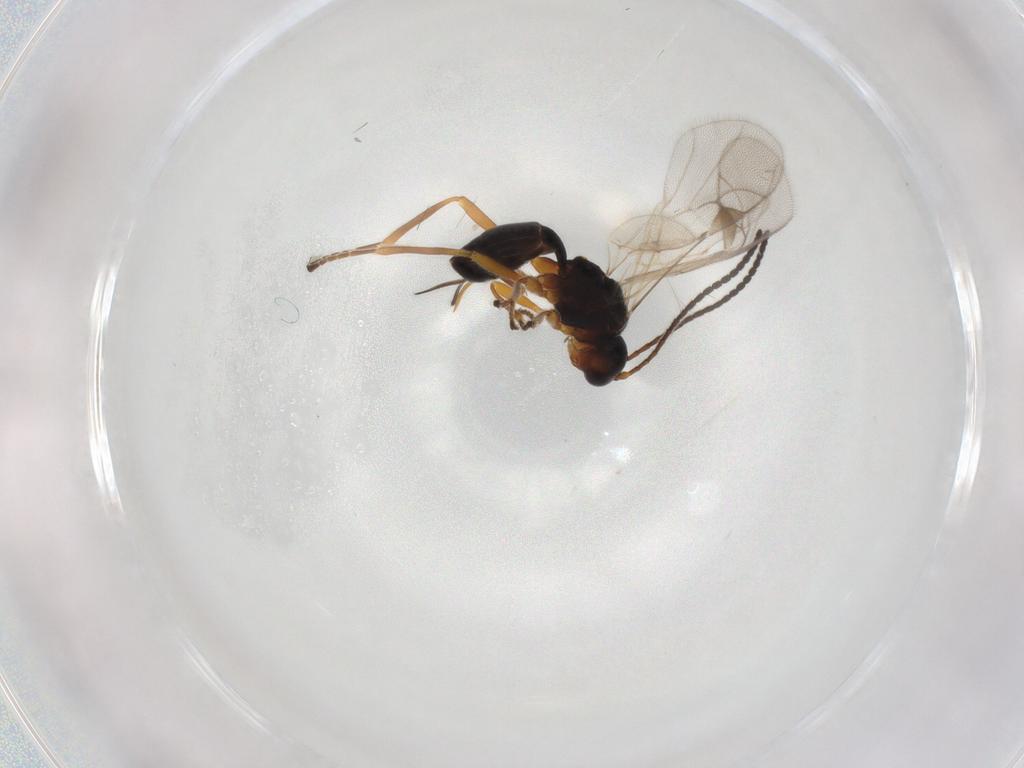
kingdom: Animalia
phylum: Arthropoda
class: Insecta
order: Hymenoptera
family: Braconidae
